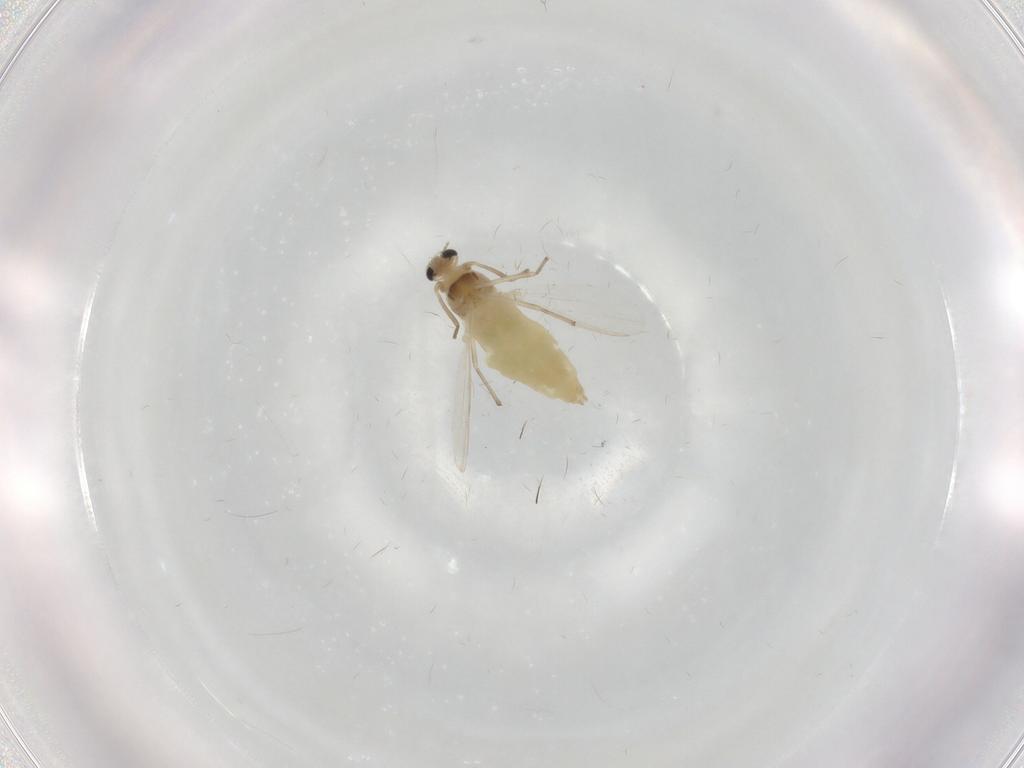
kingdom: Animalia
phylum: Arthropoda
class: Insecta
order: Diptera
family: Chironomidae
